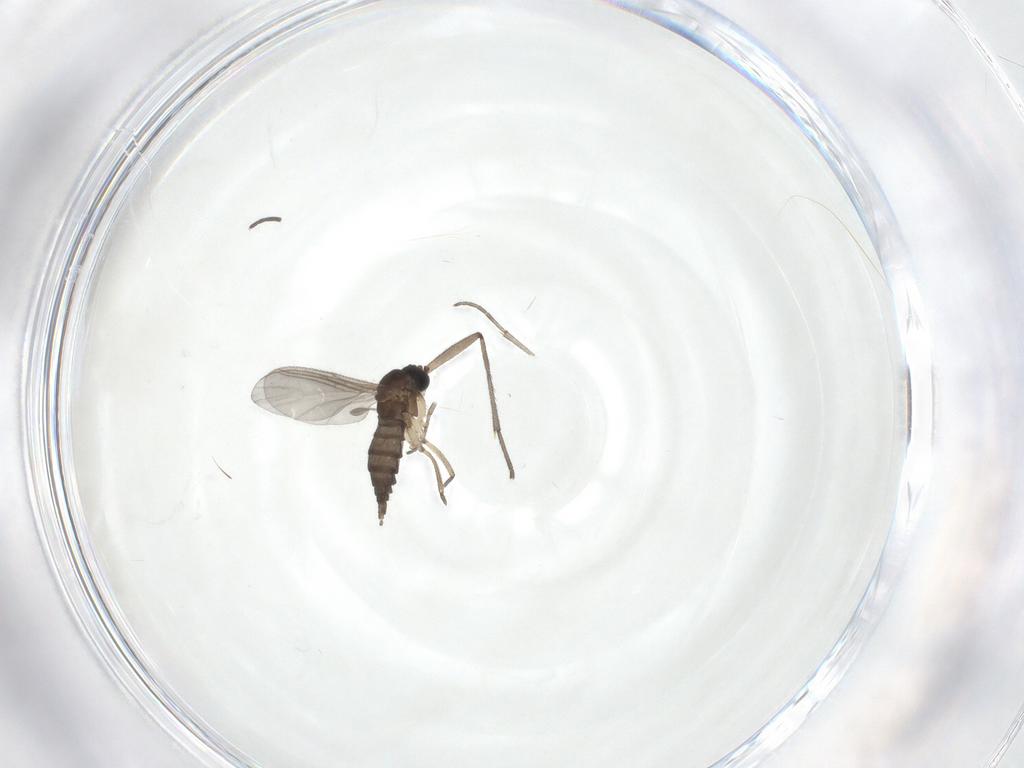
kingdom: Animalia
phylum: Arthropoda
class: Insecta
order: Diptera
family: Sciaridae
